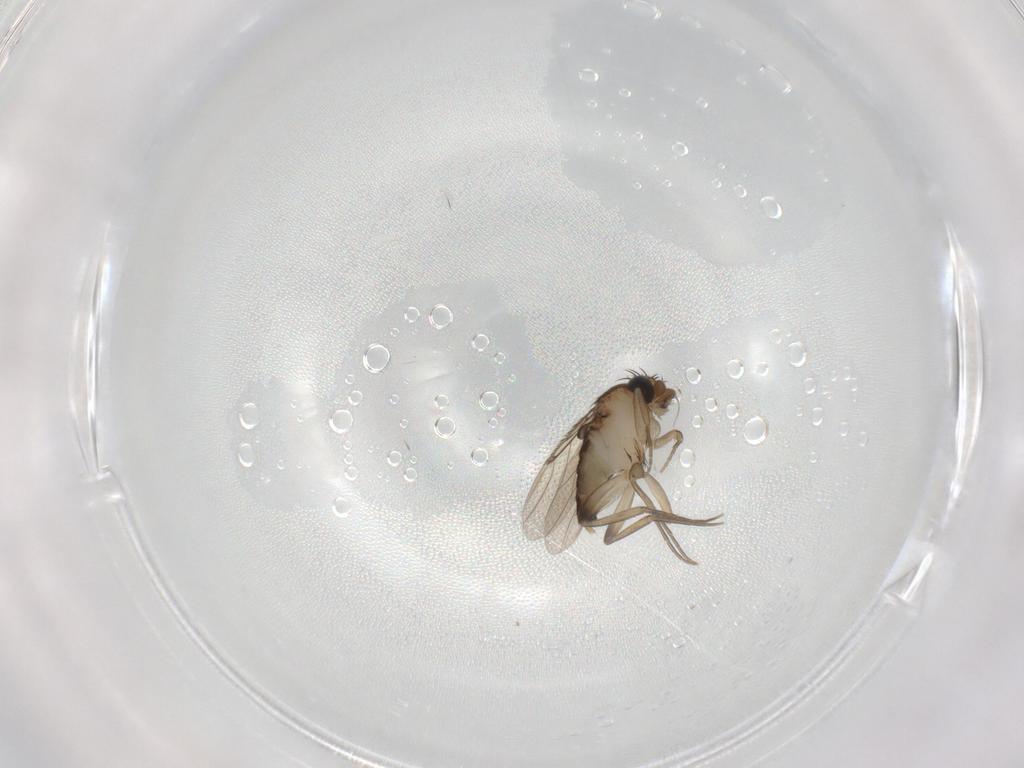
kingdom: Animalia
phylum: Arthropoda
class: Insecta
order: Diptera
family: Phoridae
